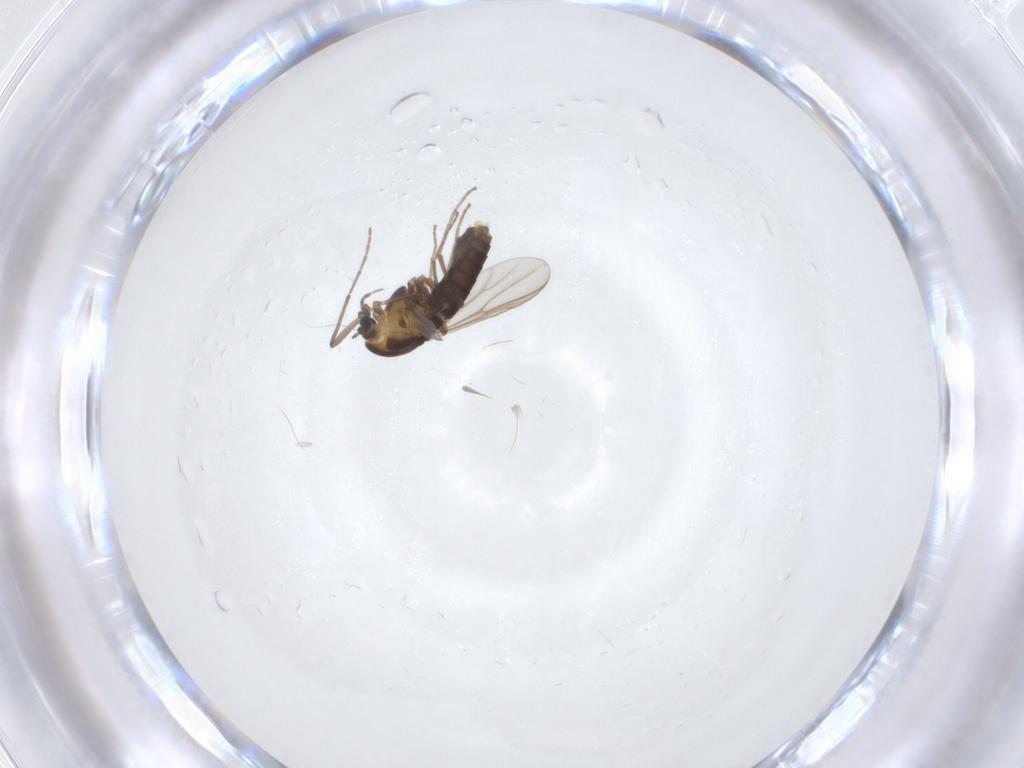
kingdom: Animalia
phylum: Arthropoda
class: Insecta
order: Diptera
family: Chironomidae
